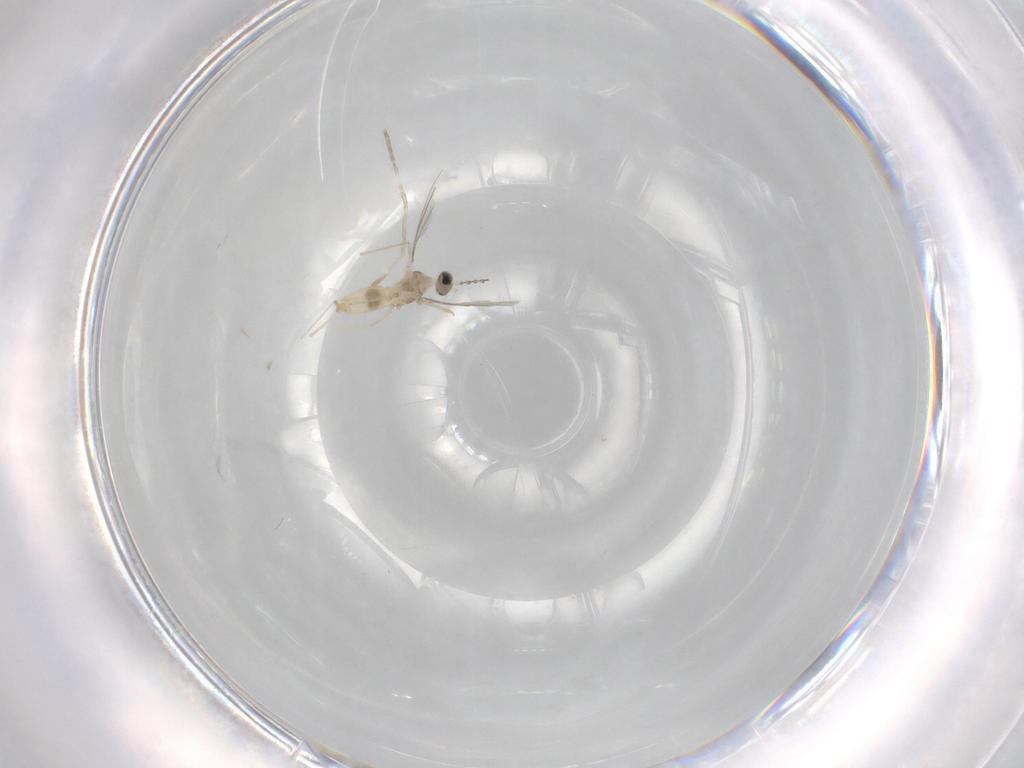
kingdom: Animalia
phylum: Arthropoda
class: Insecta
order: Diptera
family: Cecidomyiidae
